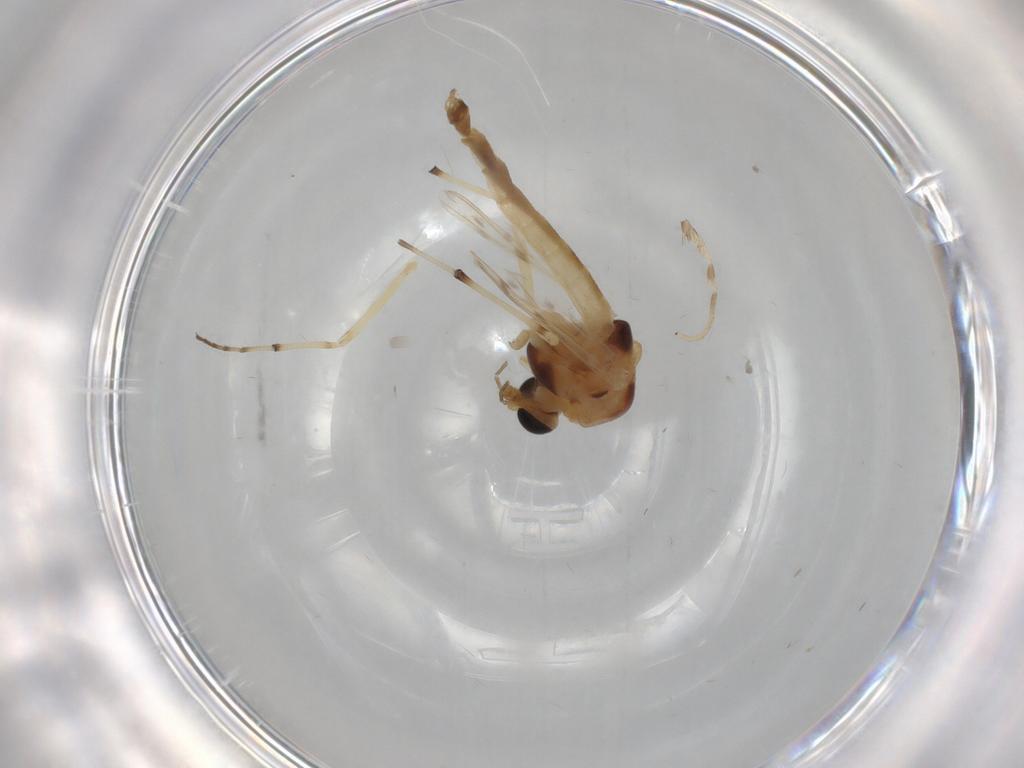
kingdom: Animalia
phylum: Arthropoda
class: Insecta
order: Diptera
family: Chironomidae
